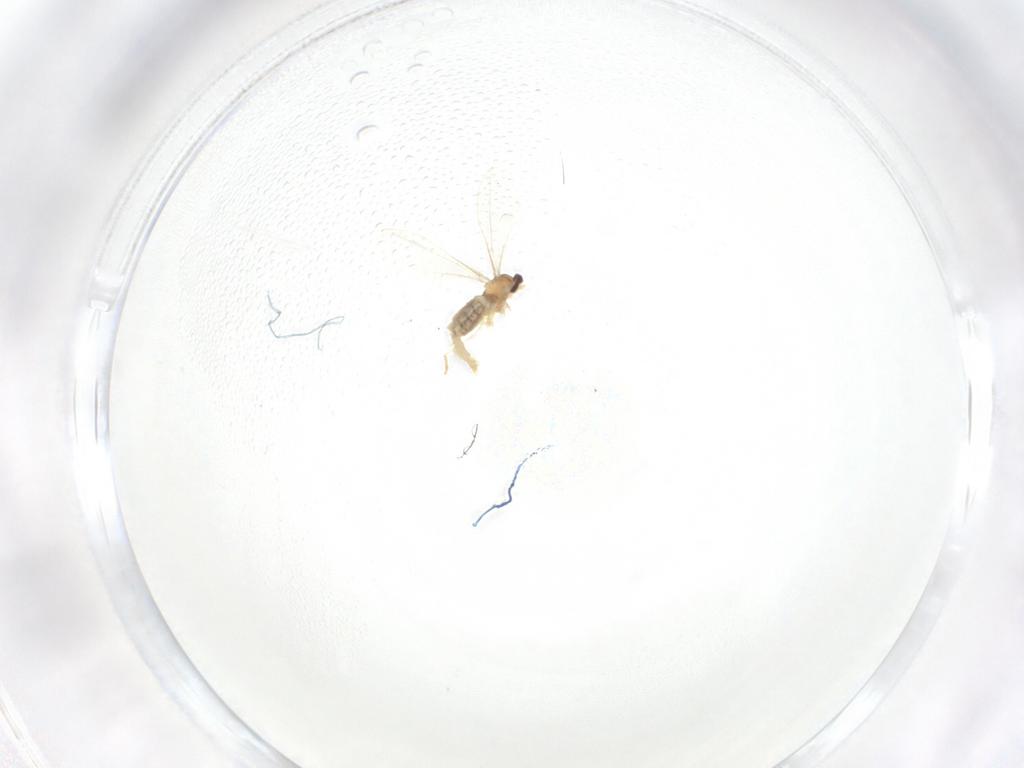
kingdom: Animalia
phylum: Arthropoda
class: Insecta
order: Diptera
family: Cecidomyiidae
